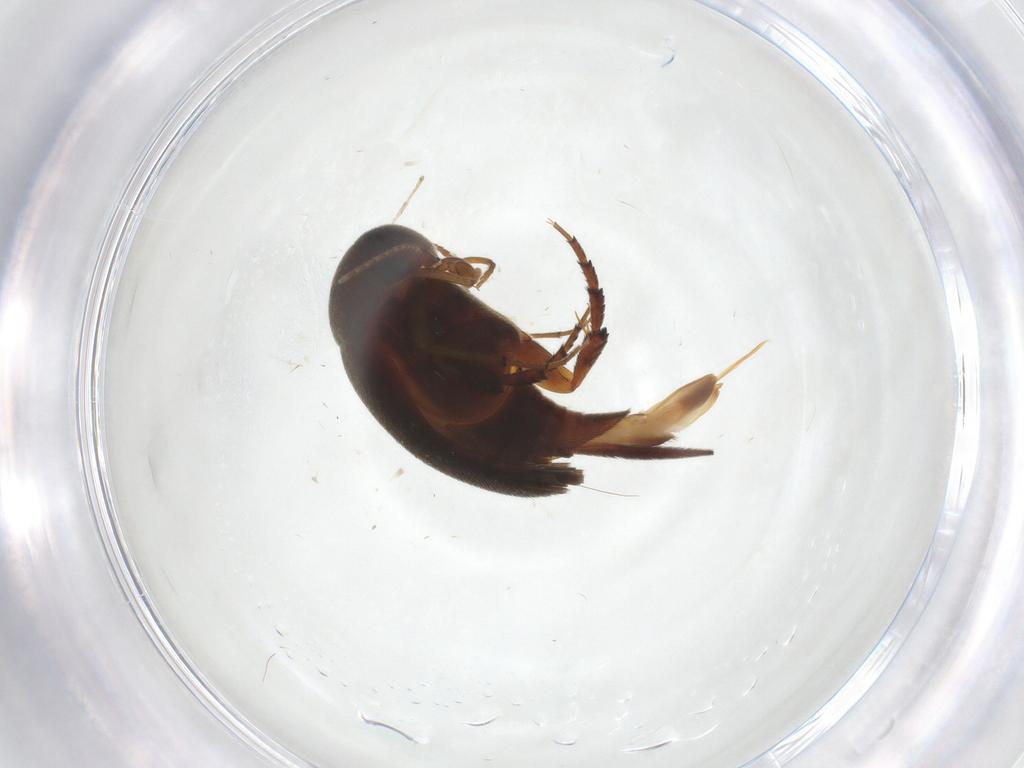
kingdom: Animalia
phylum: Arthropoda
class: Insecta
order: Coleoptera
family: Mordellidae
